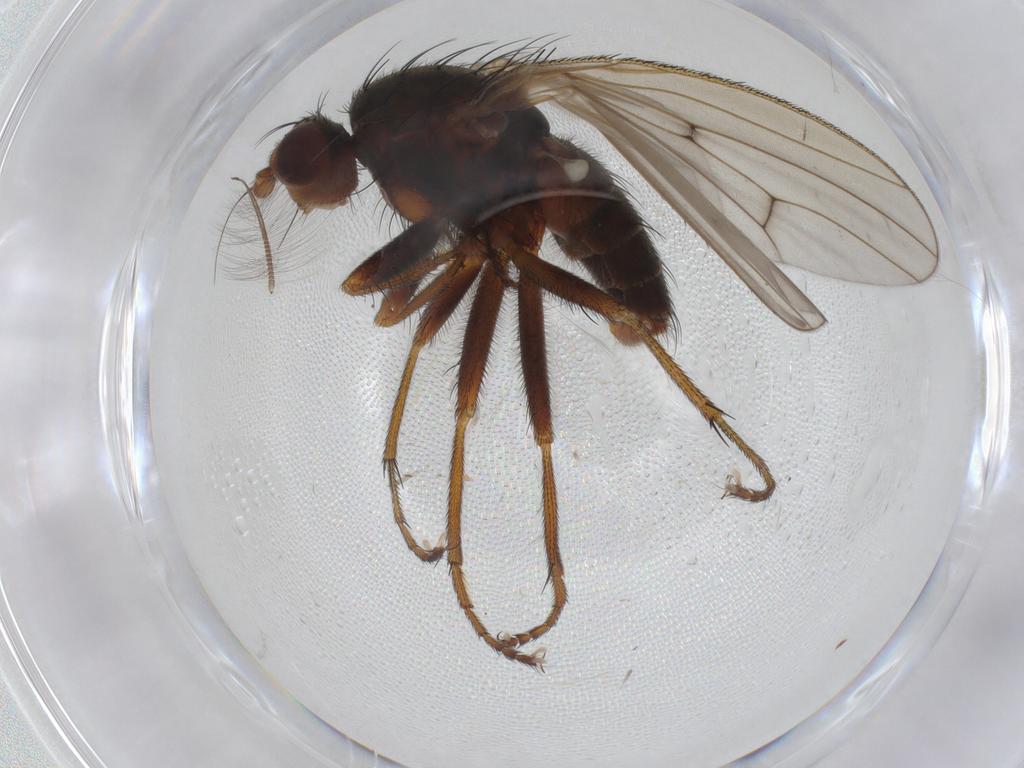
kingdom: Animalia
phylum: Arthropoda
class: Insecta
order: Diptera
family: Heleomyzidae
